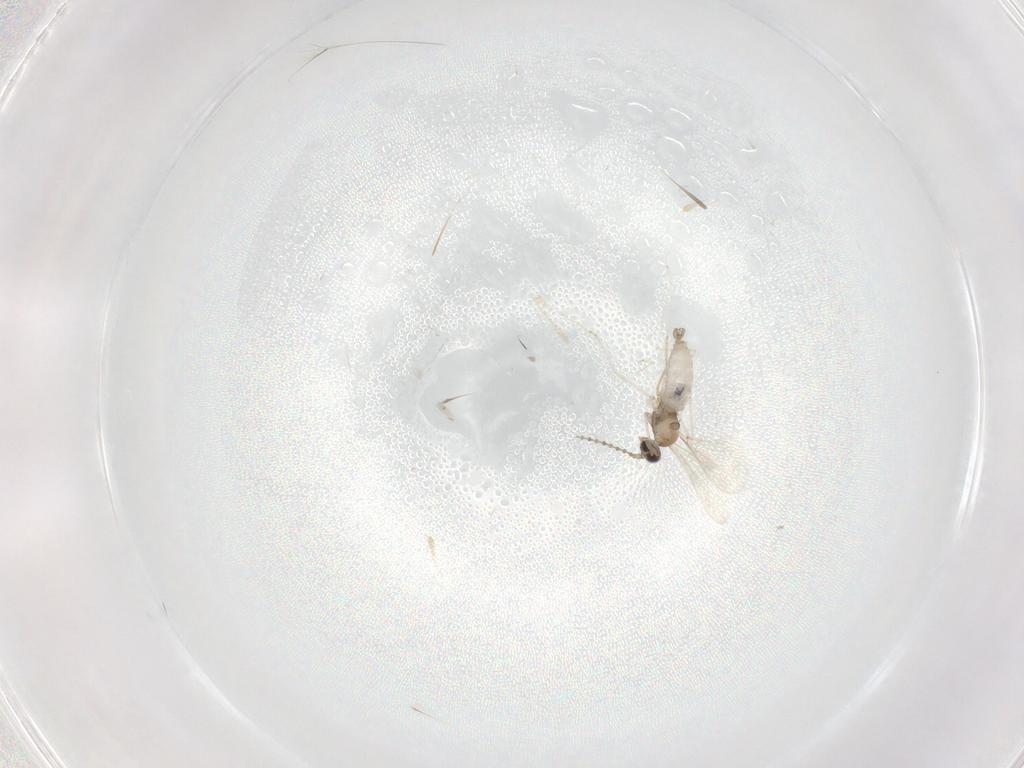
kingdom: Animalia
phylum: Arthropoda
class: Insecta
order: Diptera
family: Cecidomyiidae
